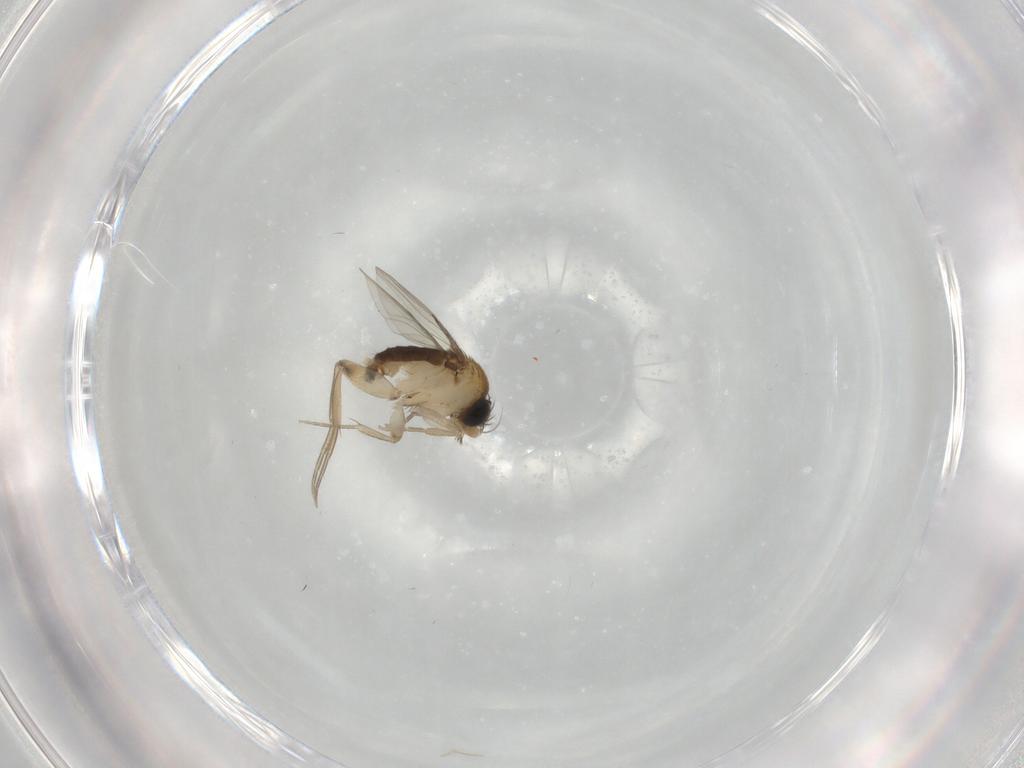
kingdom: Animalia
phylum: Arthropoda
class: Insecta
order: Diptera
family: Phoridae
